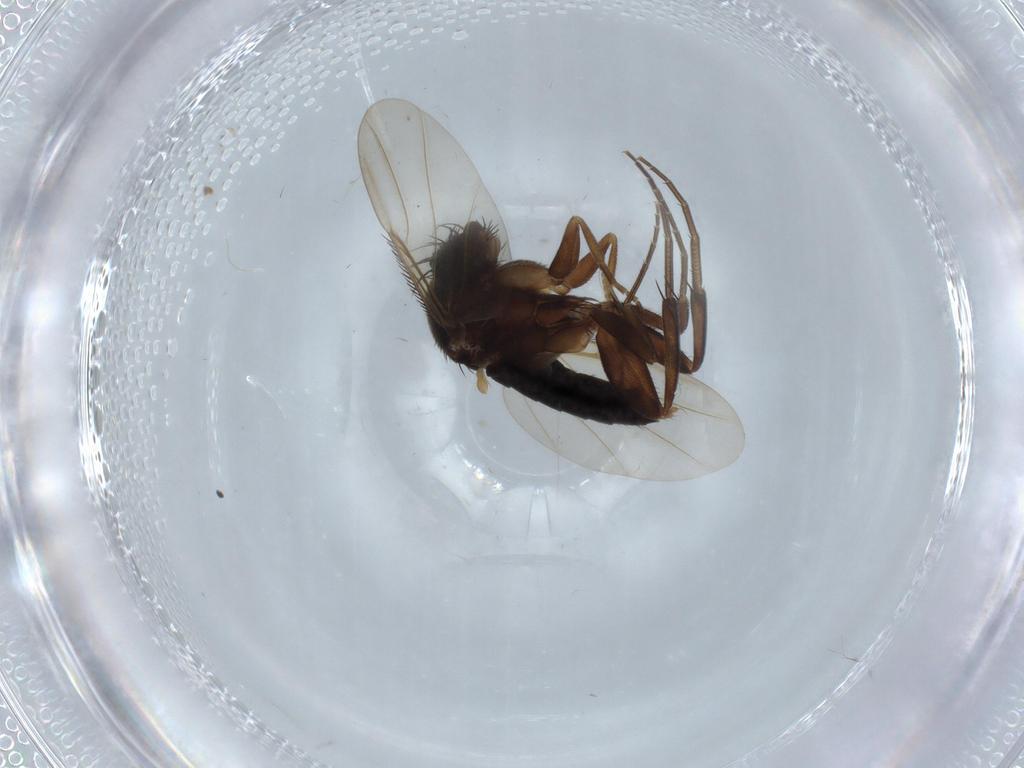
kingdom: Animalia
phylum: Arthropoda
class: Insecta
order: Diptera
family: Phoridae
